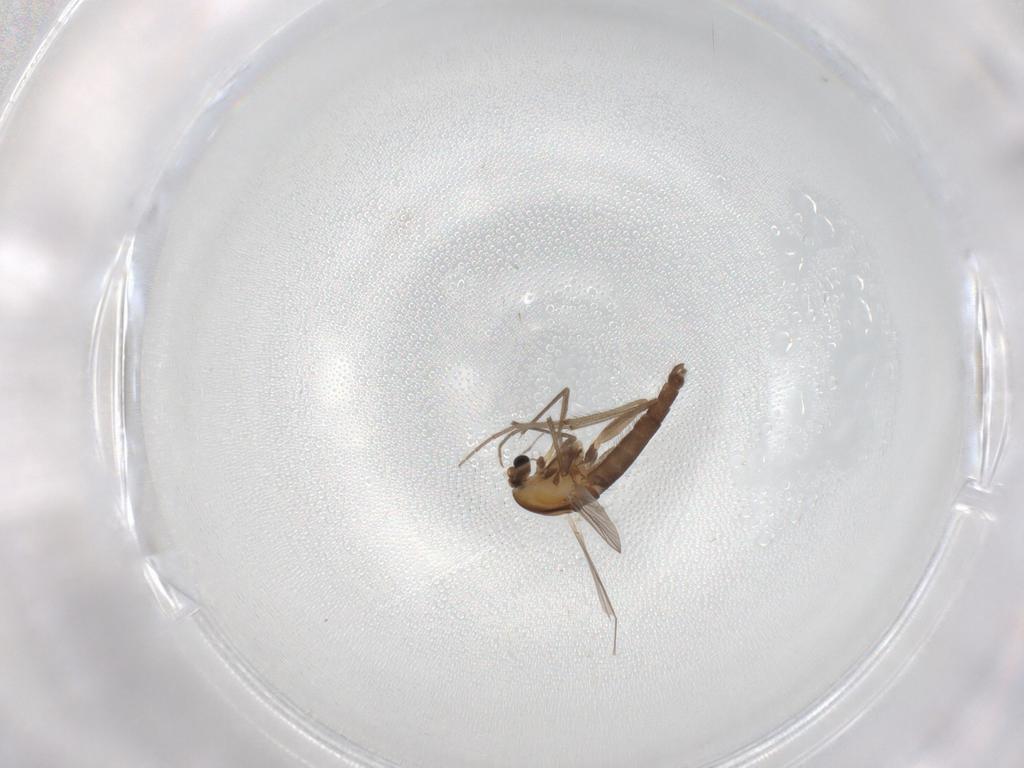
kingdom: Animalia
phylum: Arthropoda
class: Insecta
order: Diptera
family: Chironomidae
